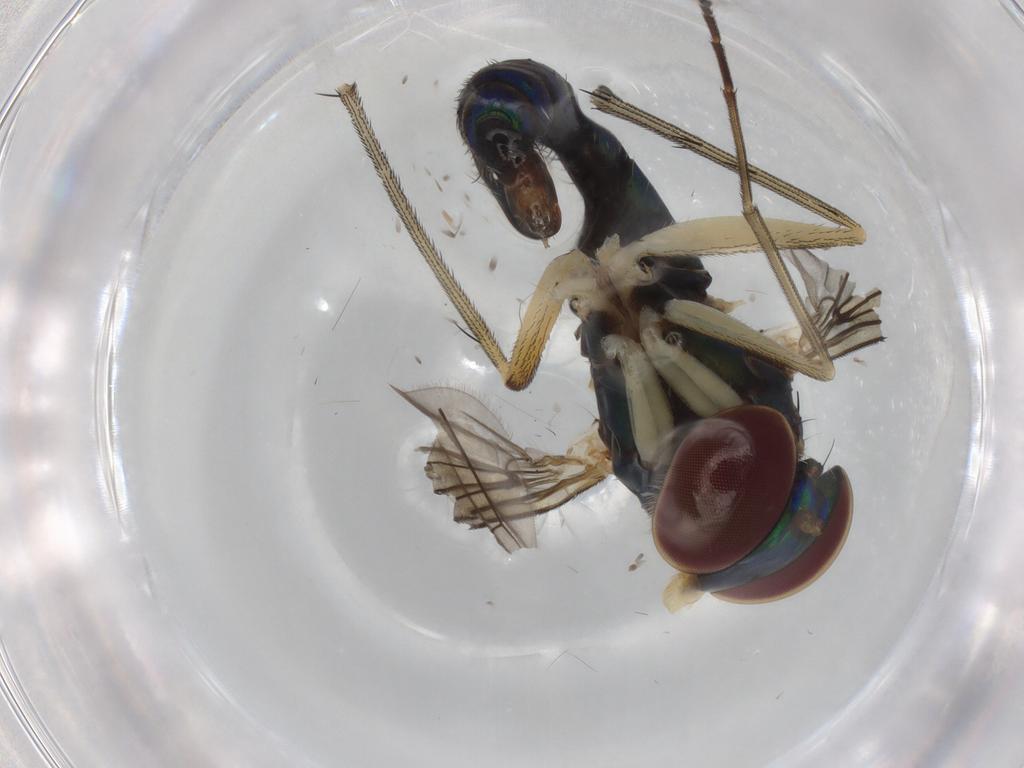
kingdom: Animalia
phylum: Arthropoda
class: Insecta
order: Diptera
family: Dolichopodidae
